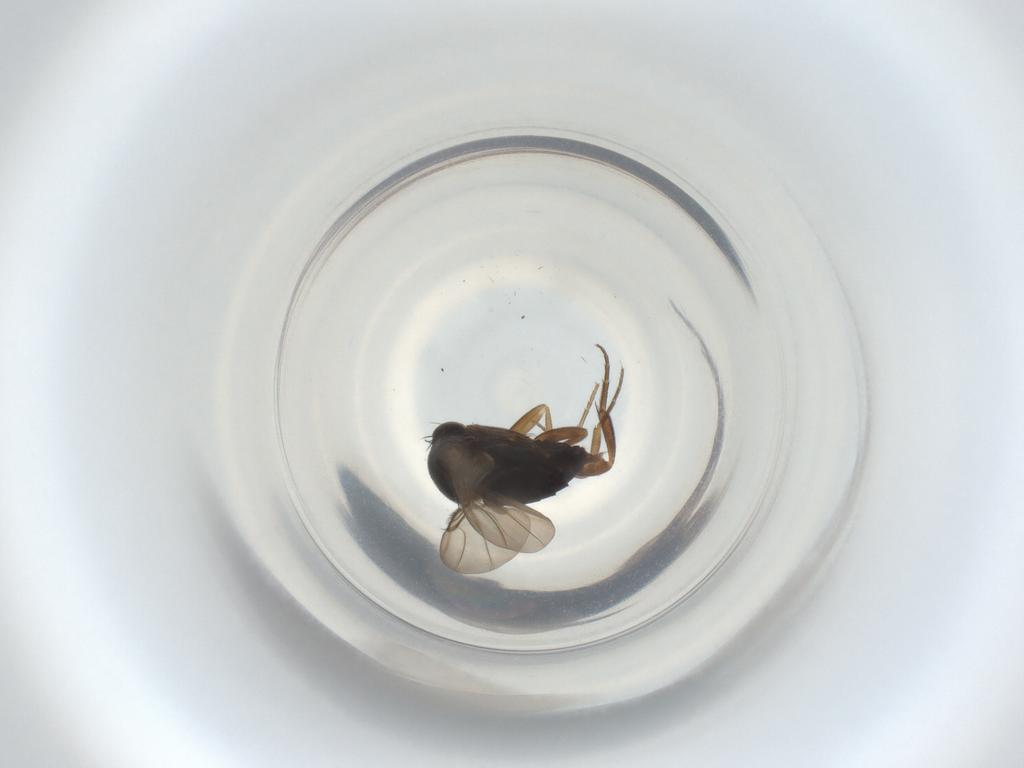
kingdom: Animalia
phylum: Arthropoda
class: Insecta
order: Diptera
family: Phoridae
